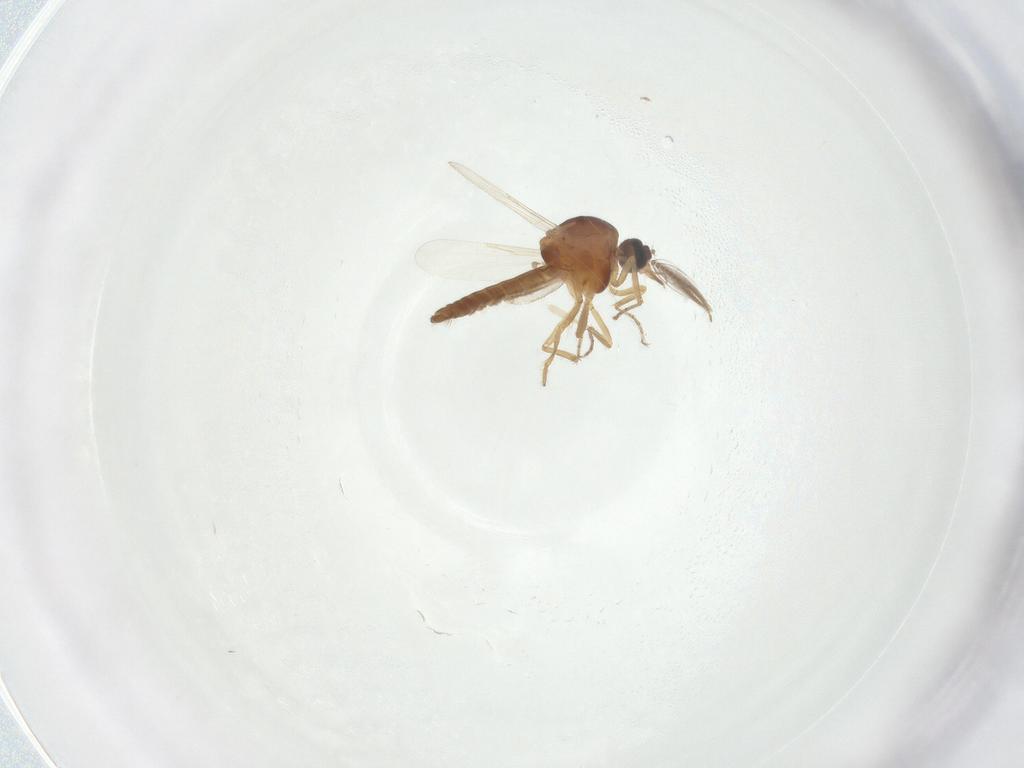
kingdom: Animalia
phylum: Arthropoda
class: Insecta
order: Diptera
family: Ceratopogonidae
